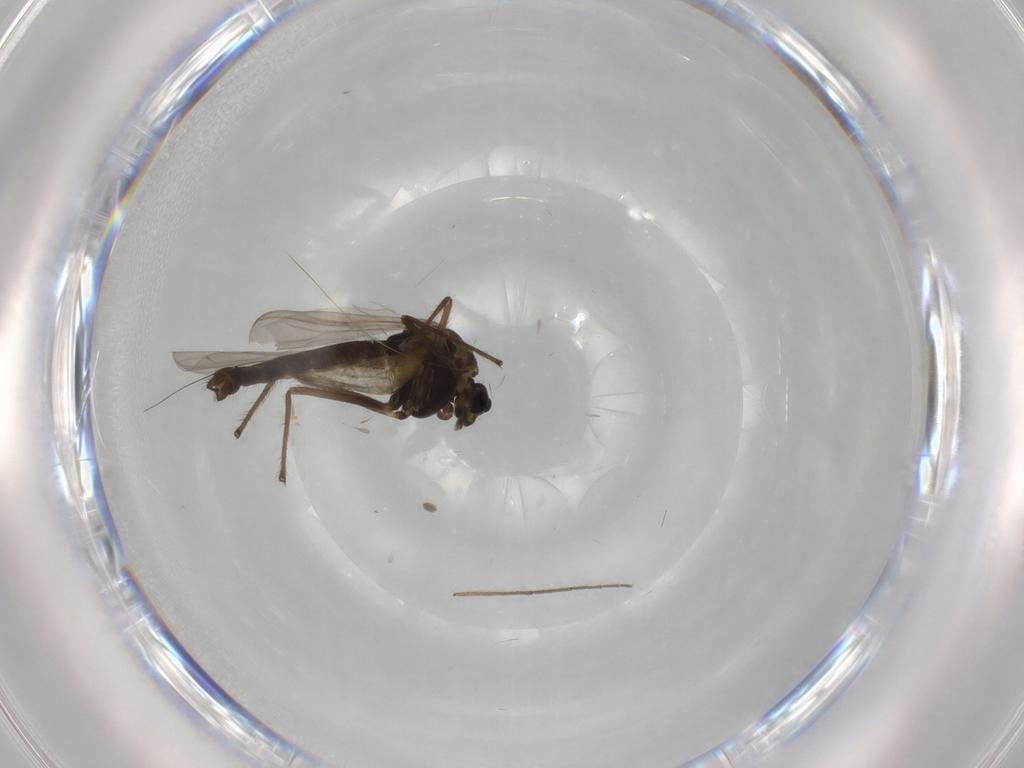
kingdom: Animalia
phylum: Arthropoda
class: Insecta
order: Diptera
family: Chironomidae
